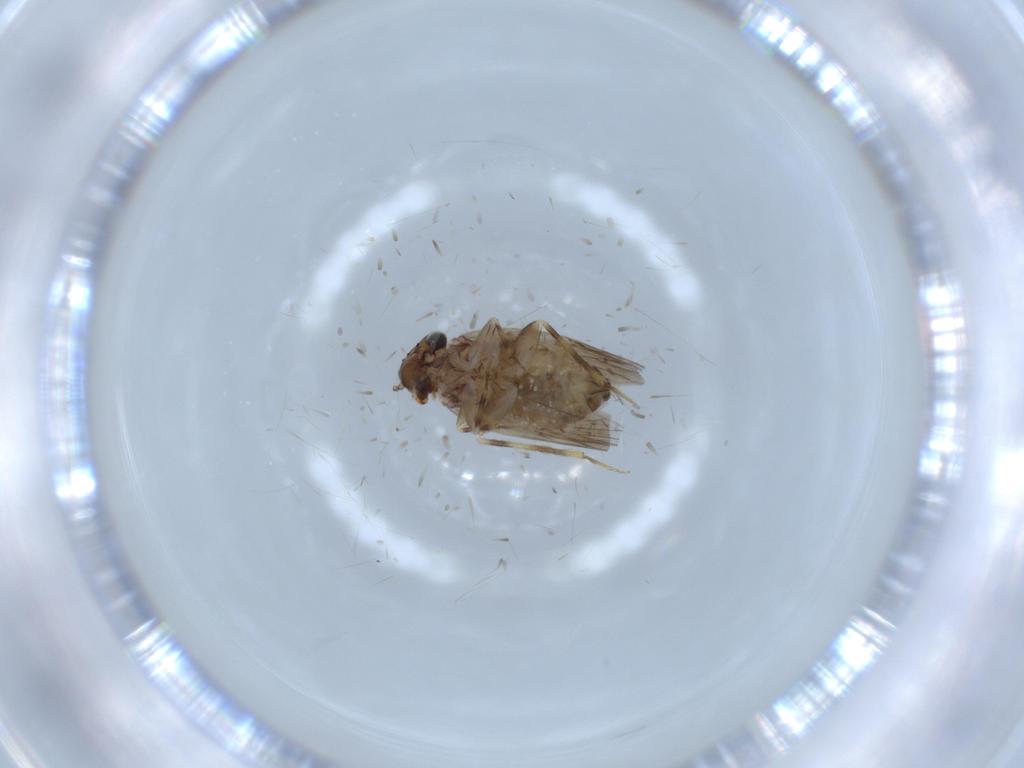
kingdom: Animalia
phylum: Arthropoda
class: Insecta
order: Psocodea
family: Lepidopsocidae
